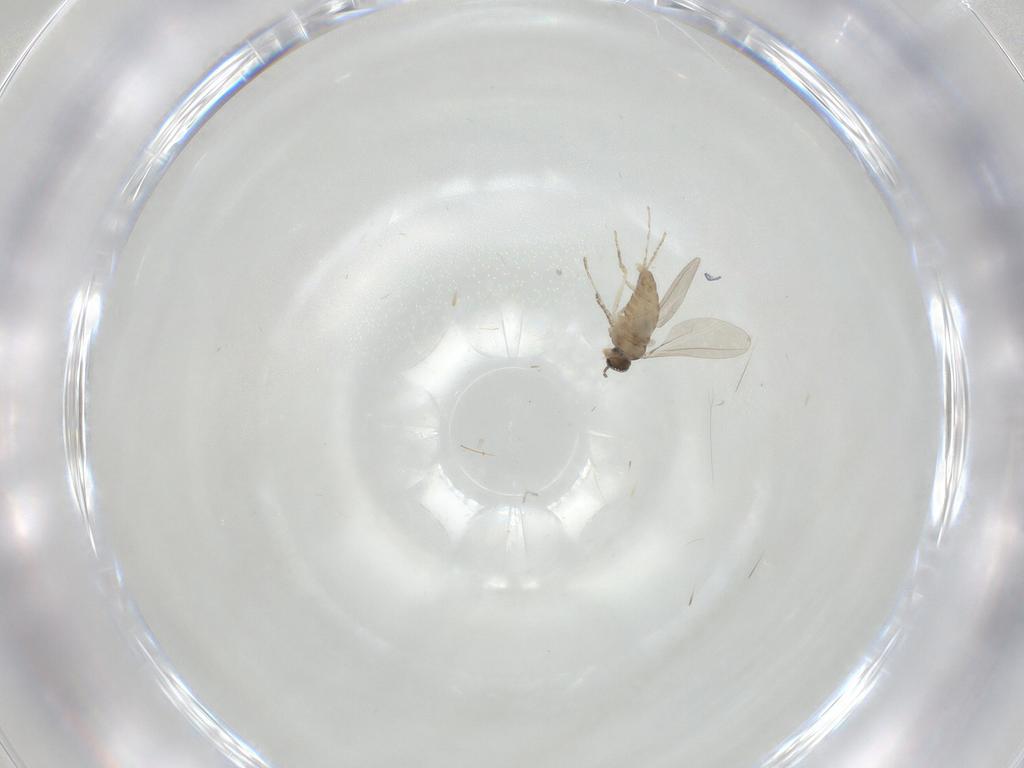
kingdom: Animalia
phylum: Arthropoda
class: Insecta
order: Diptera
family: Cecidomyiidae
